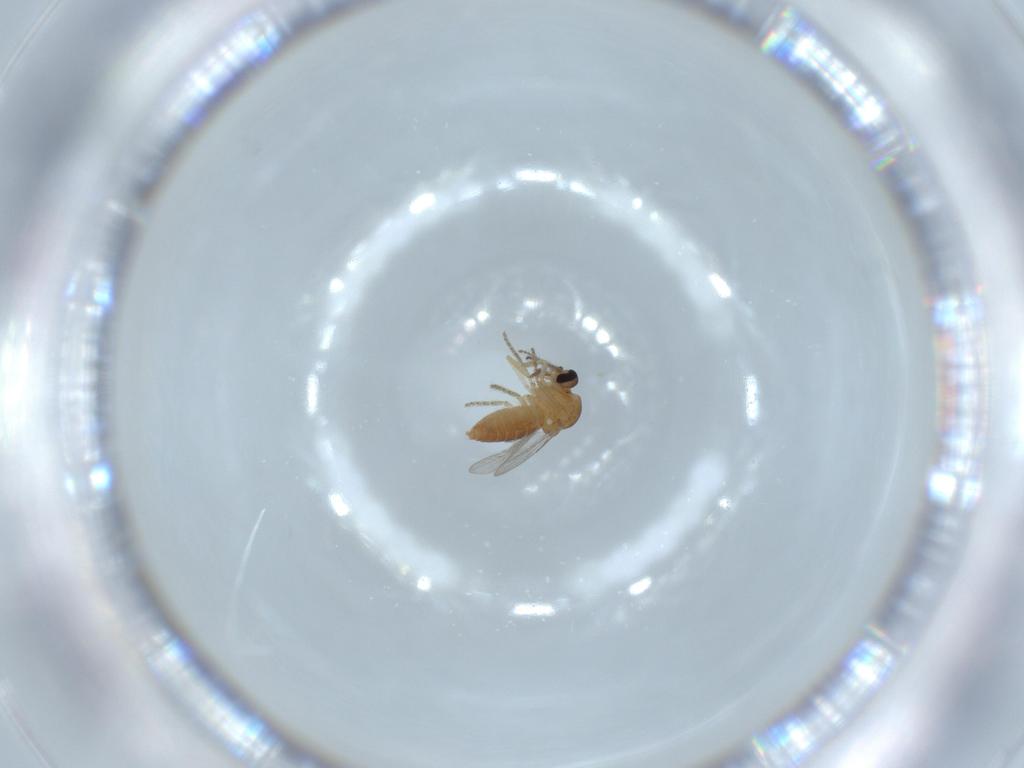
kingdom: Animalia
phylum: Arthropoda
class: Insecta
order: Diptera
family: Ceratopogonidae
